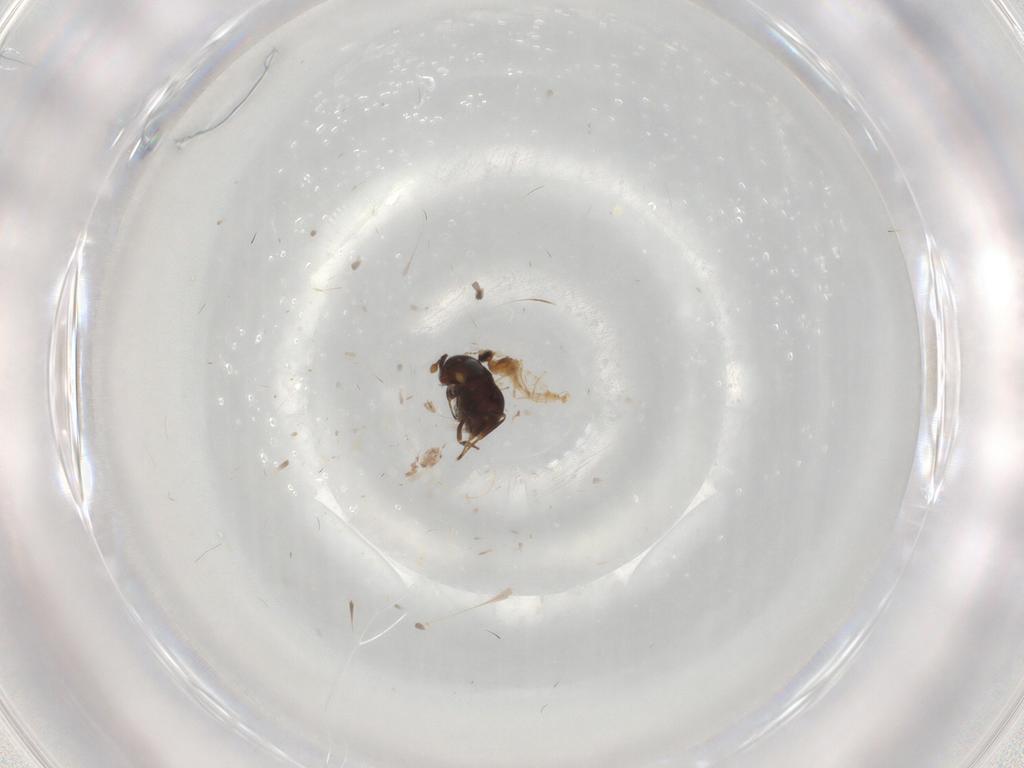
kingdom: Animalia
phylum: Arthropoda
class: Insecta
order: Hymenoptera
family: Scelionidae
